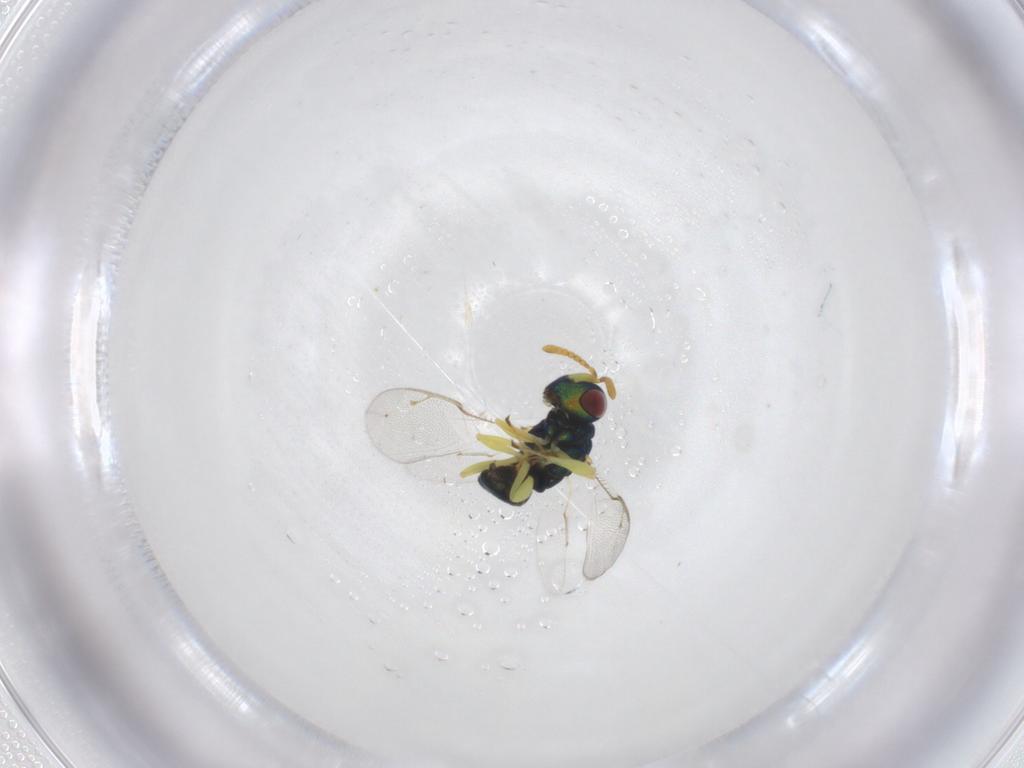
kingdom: Animalia
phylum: Arthropoda
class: Insecta
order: Hymenoptera
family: Pteromalidae
